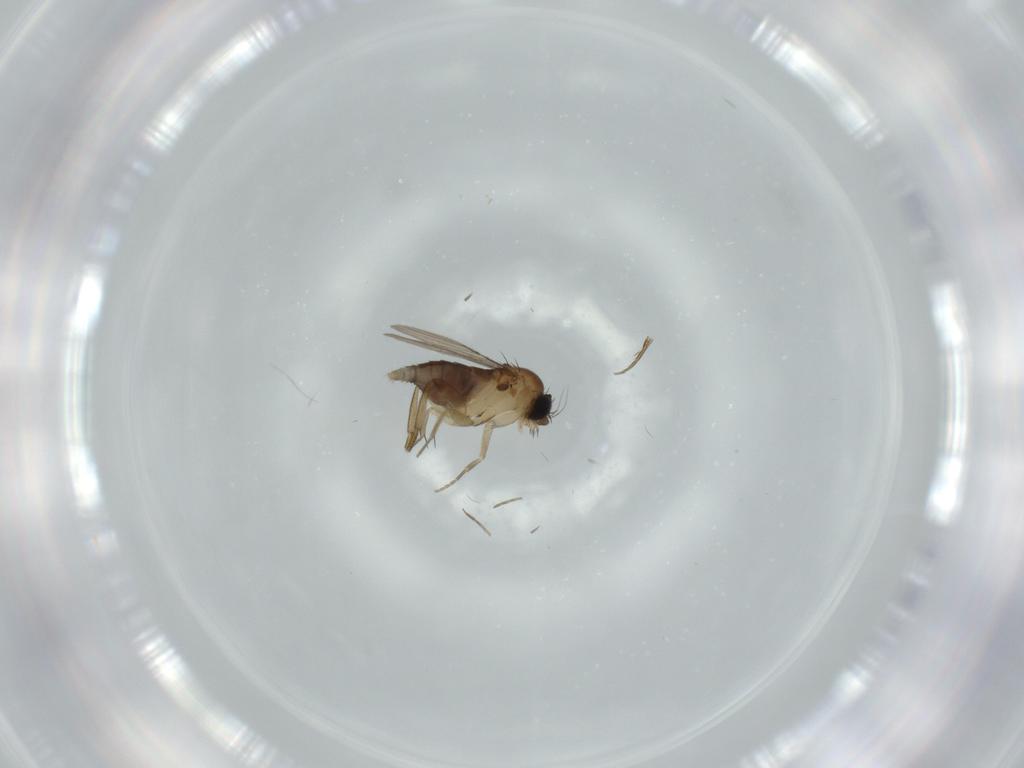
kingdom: Animalia
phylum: Arthropoda
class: Insecta
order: Diptera
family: Phoridae
